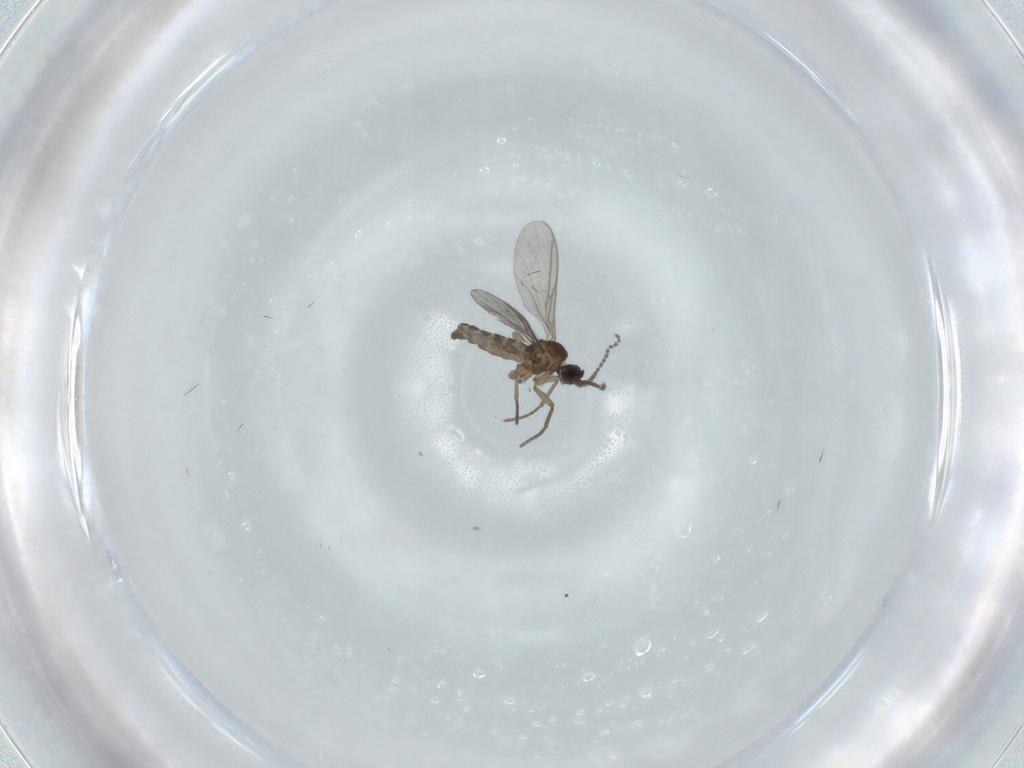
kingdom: Animalia
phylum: Arthropoda
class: Insecta
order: Diptera
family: Sciaridae
